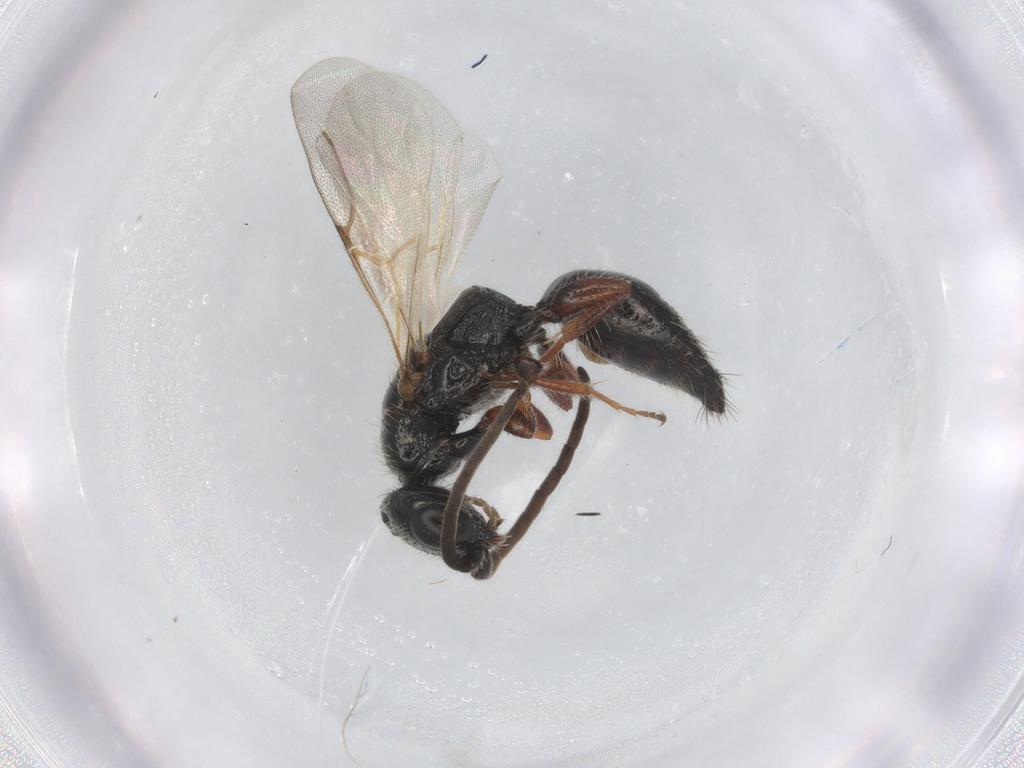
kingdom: Animalia
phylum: Arthropoda
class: Insecta
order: Hymenoptera
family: Bethylidae
